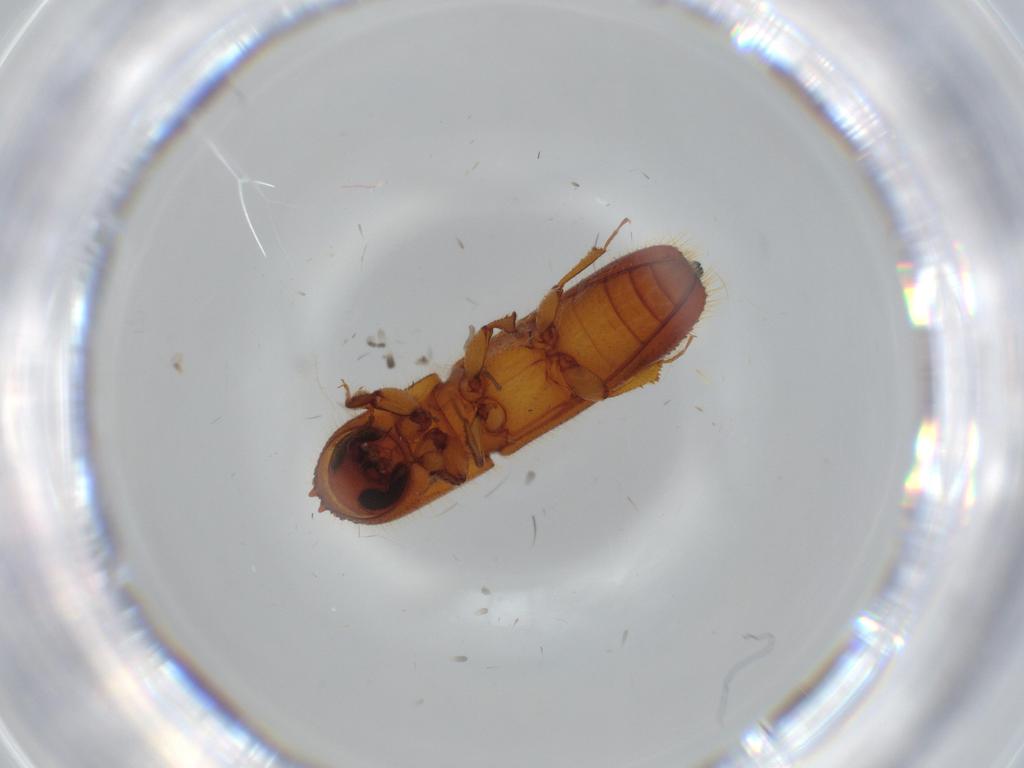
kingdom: Animalia
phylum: Arthropoda
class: Insecta
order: Coleoptera
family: Curculionidae
